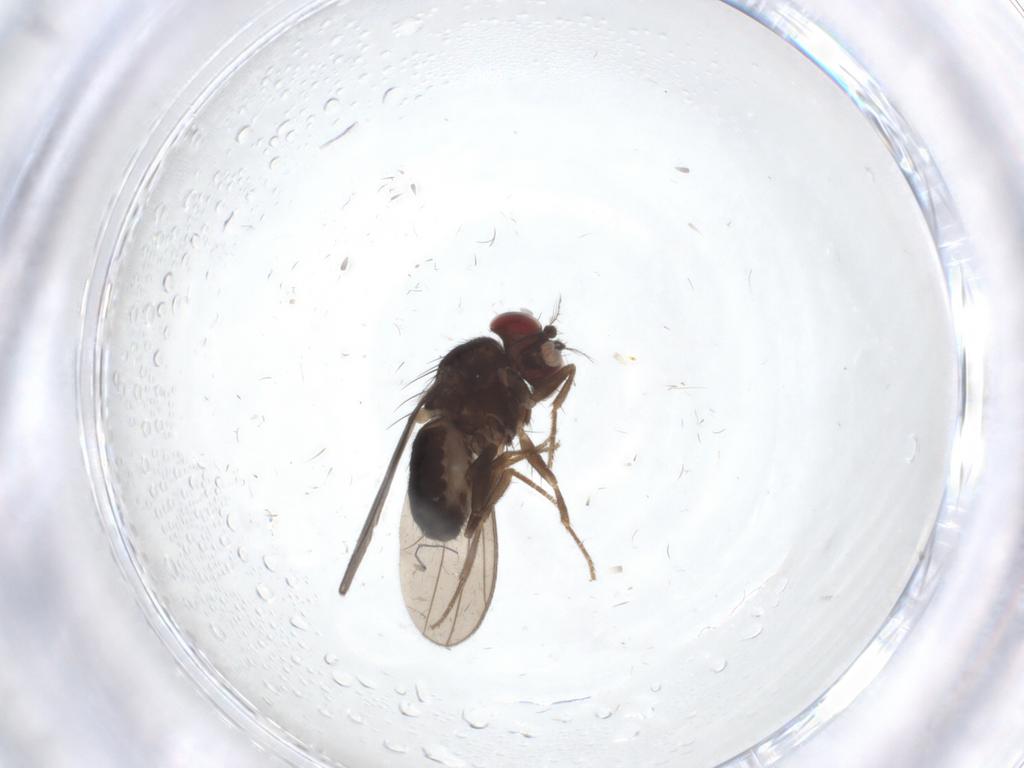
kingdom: Animalia
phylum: Arthropoda
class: Insecta
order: Diptera
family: Drosophilidae
